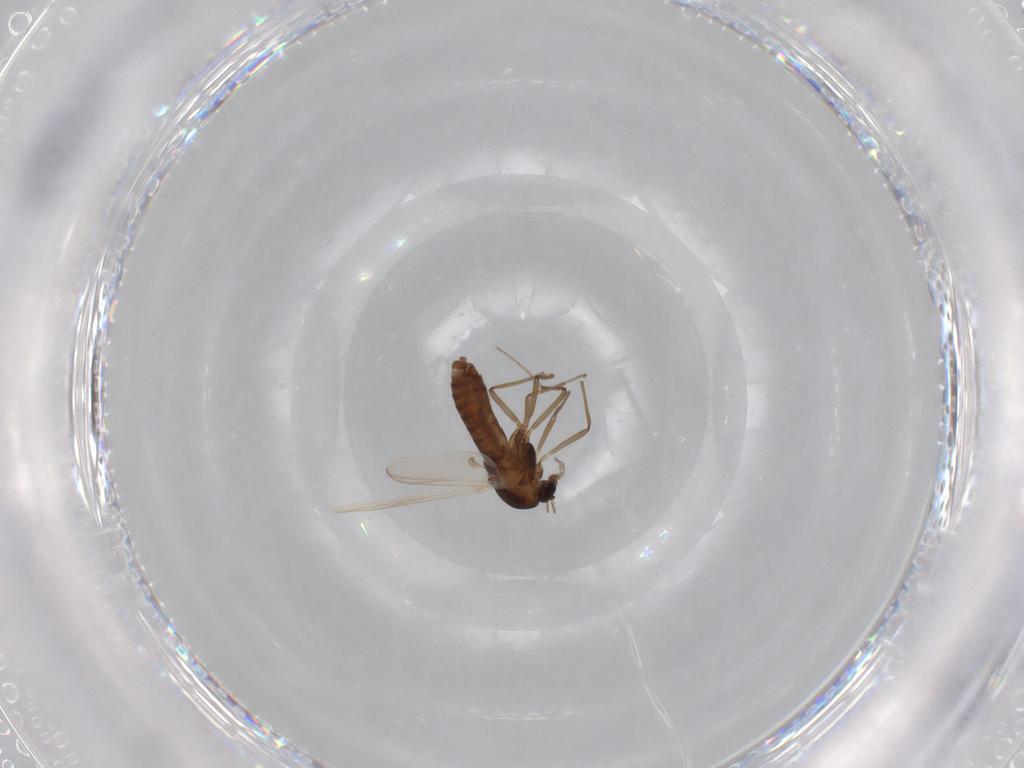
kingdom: Animalia
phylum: Arthropoda
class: Insecta
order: Diptera
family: Chironomidae
